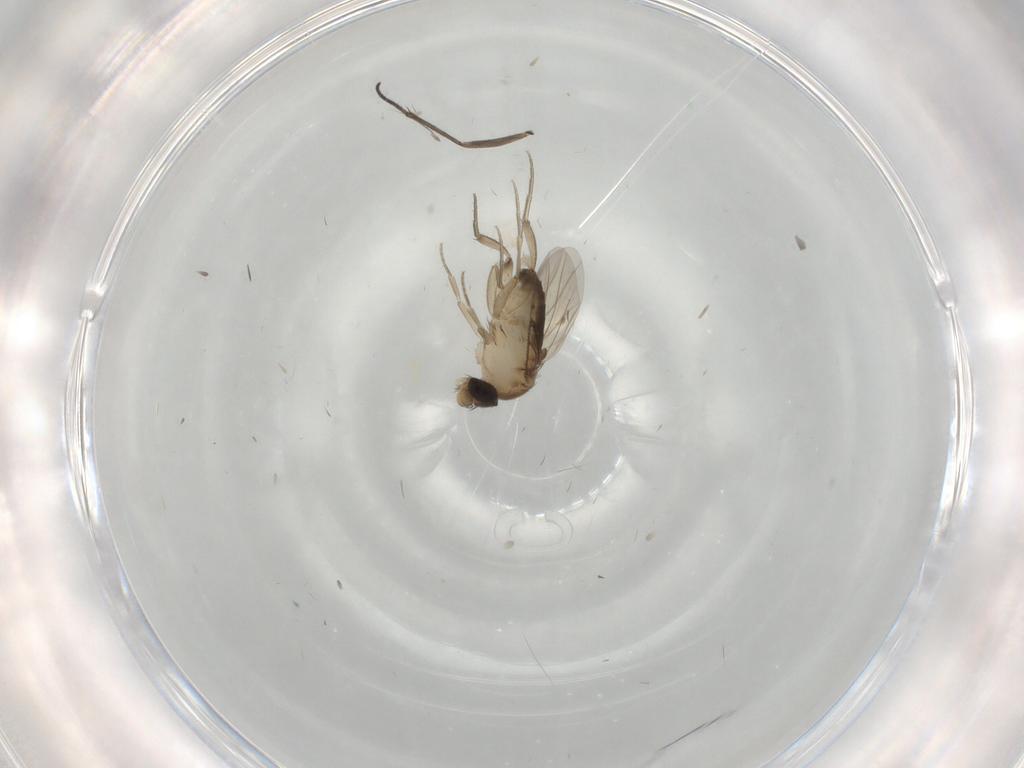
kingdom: Animalia
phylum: Arthropoda
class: Insecta
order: Diptera
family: Phoridae
